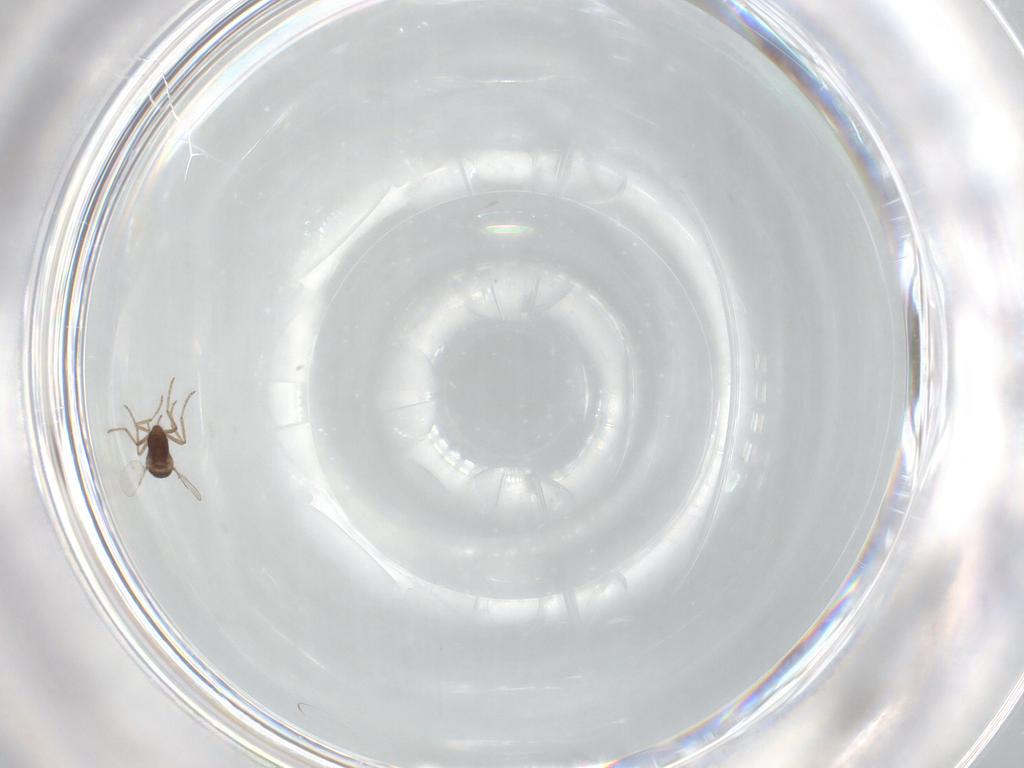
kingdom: Animalia
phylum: Arthropoda
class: Insecta
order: Diptera
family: Ceratopogonidae
